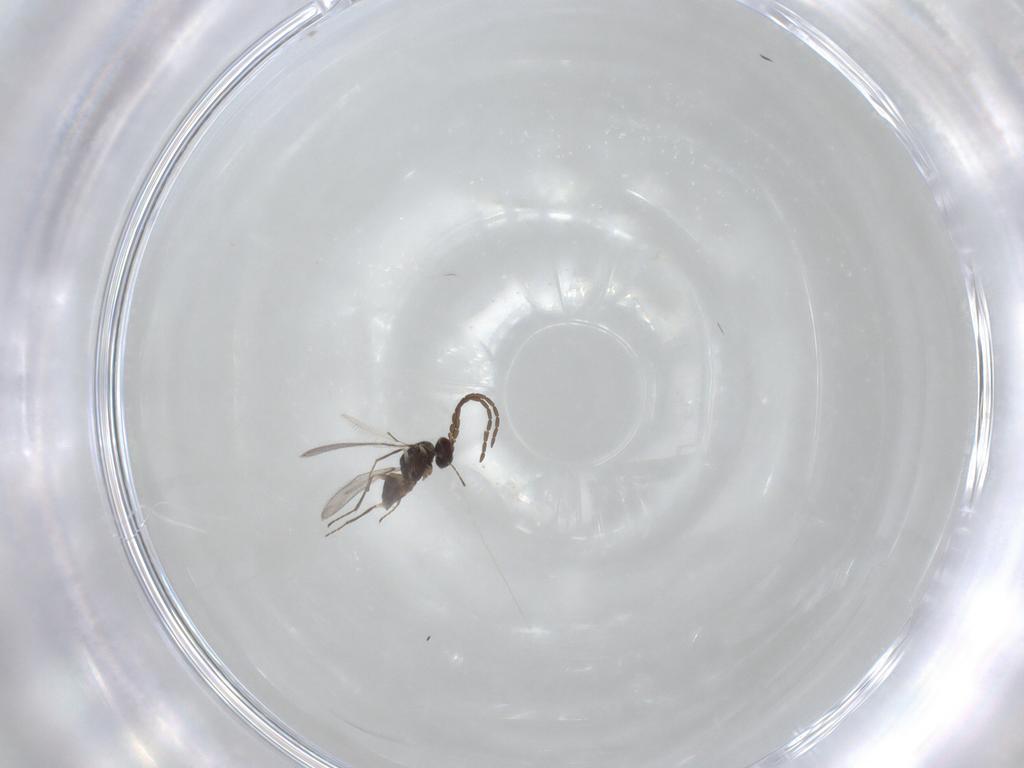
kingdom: Animalia
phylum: Arthropoda
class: Insecta
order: Hymenoptera
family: Mymaridae
